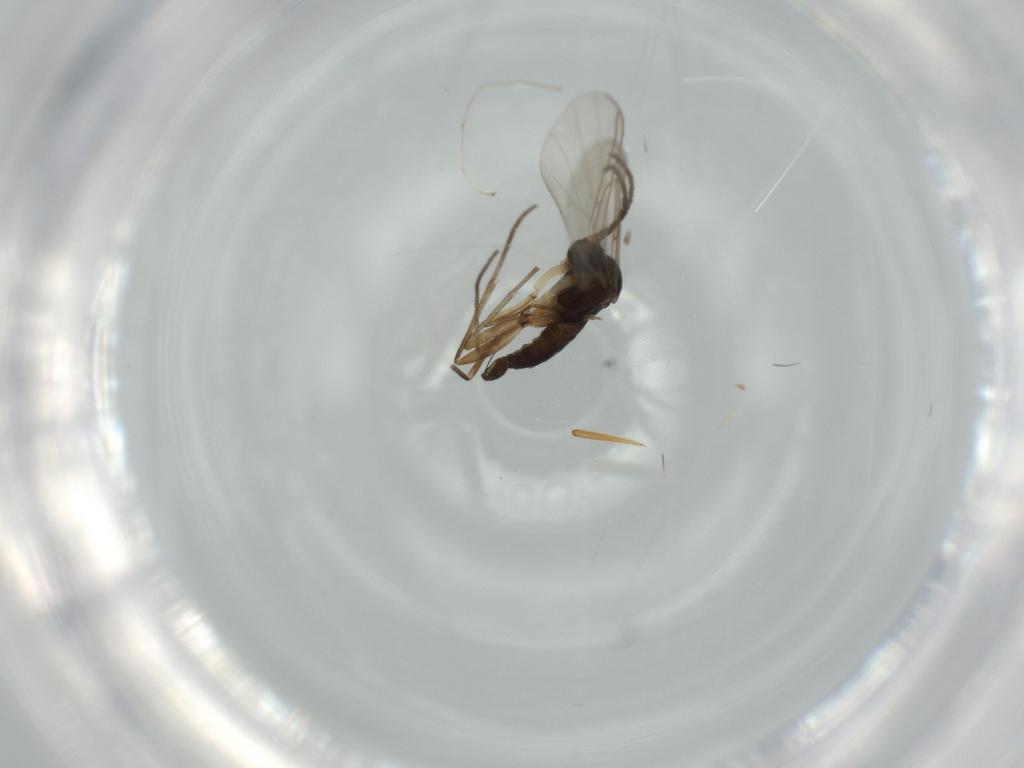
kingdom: Animalia
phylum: Arthropoda
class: Insecta
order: Diptera
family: Sciaridae
